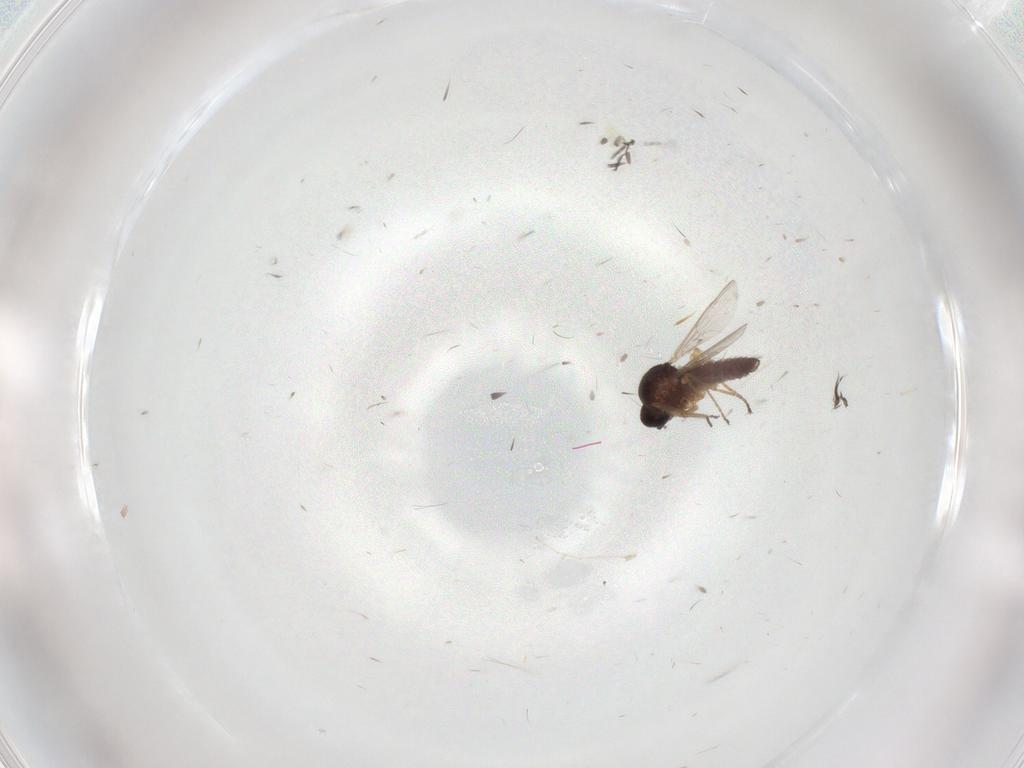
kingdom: Animalia
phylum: Arthropoda
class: Insecta
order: Diptera
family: Ceratopogonidae
